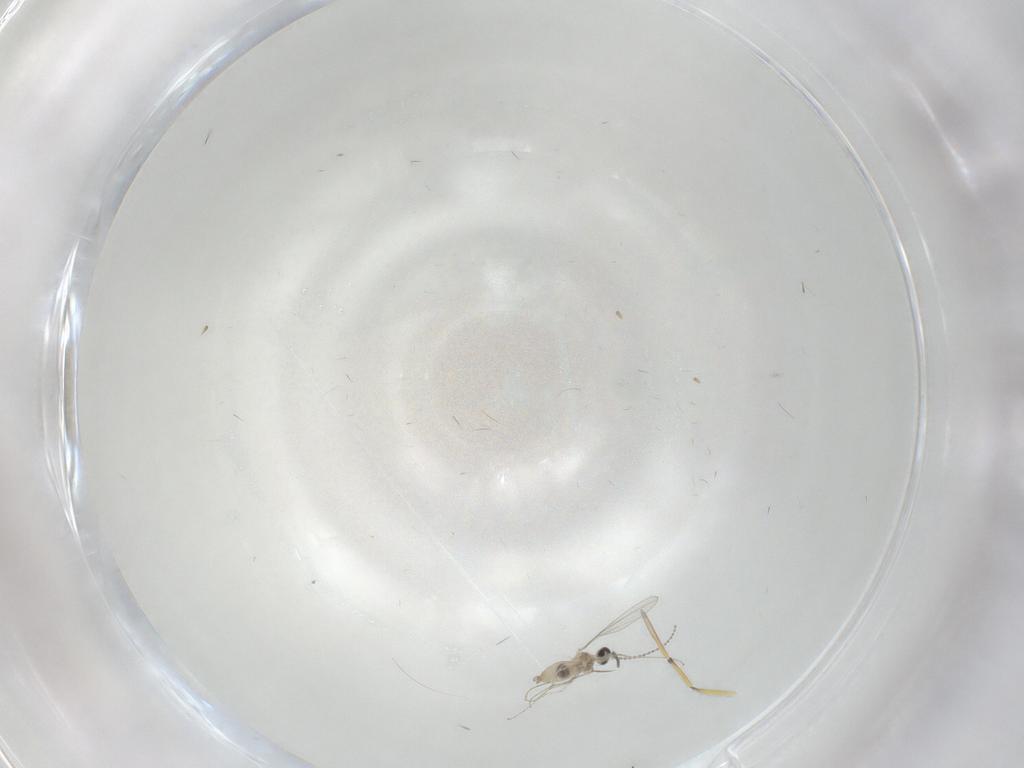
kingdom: Animalia
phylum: Arthropoda
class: Insecta
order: Diptera
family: Cecidomyiidae
